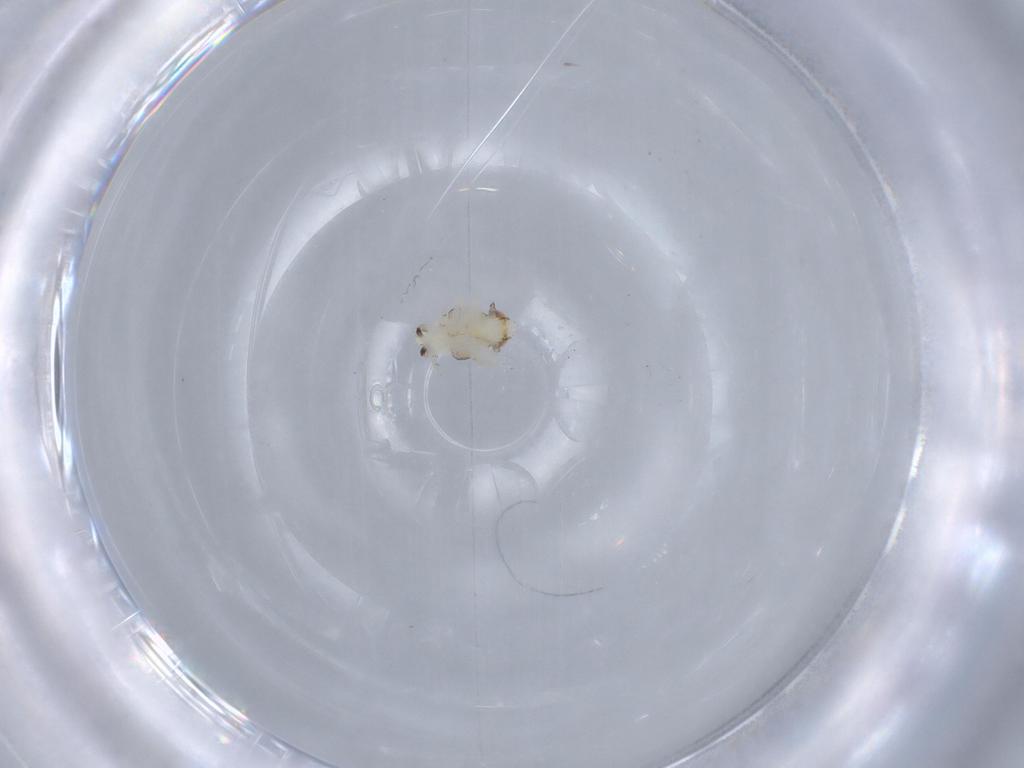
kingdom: Animalia
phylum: Arthropoda
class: Insecta
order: Hemiptera
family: Nogodinidae
